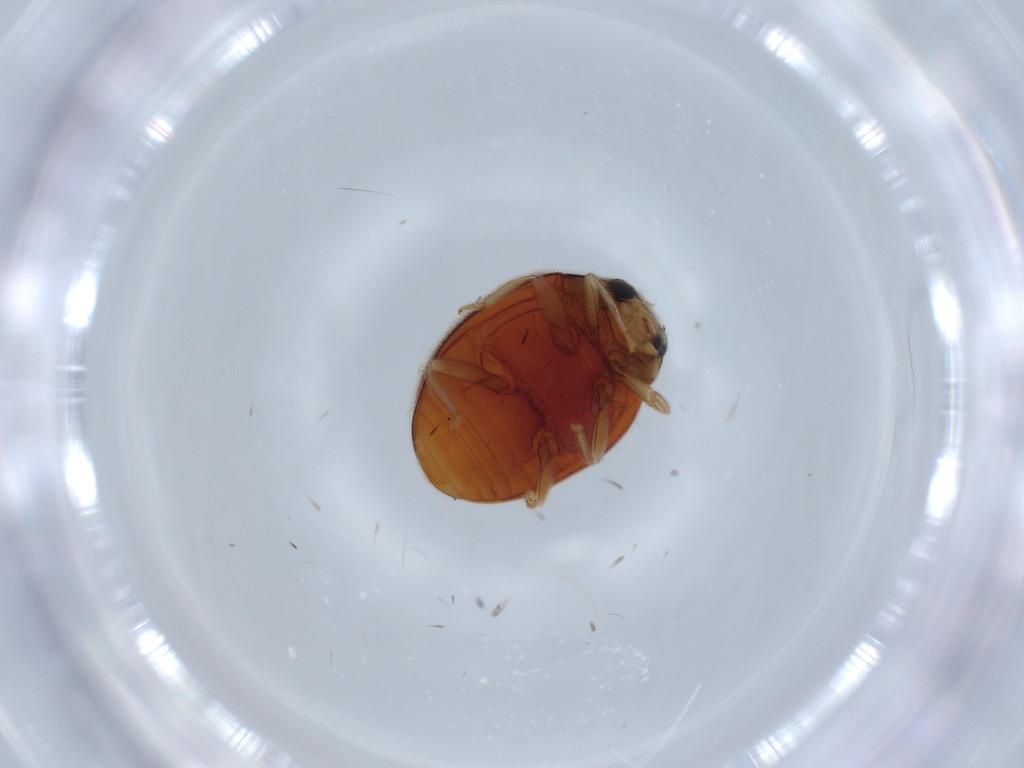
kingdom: Animalia
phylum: Arthropoda
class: Insecta
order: Coleoptera
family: Coccinellidae
